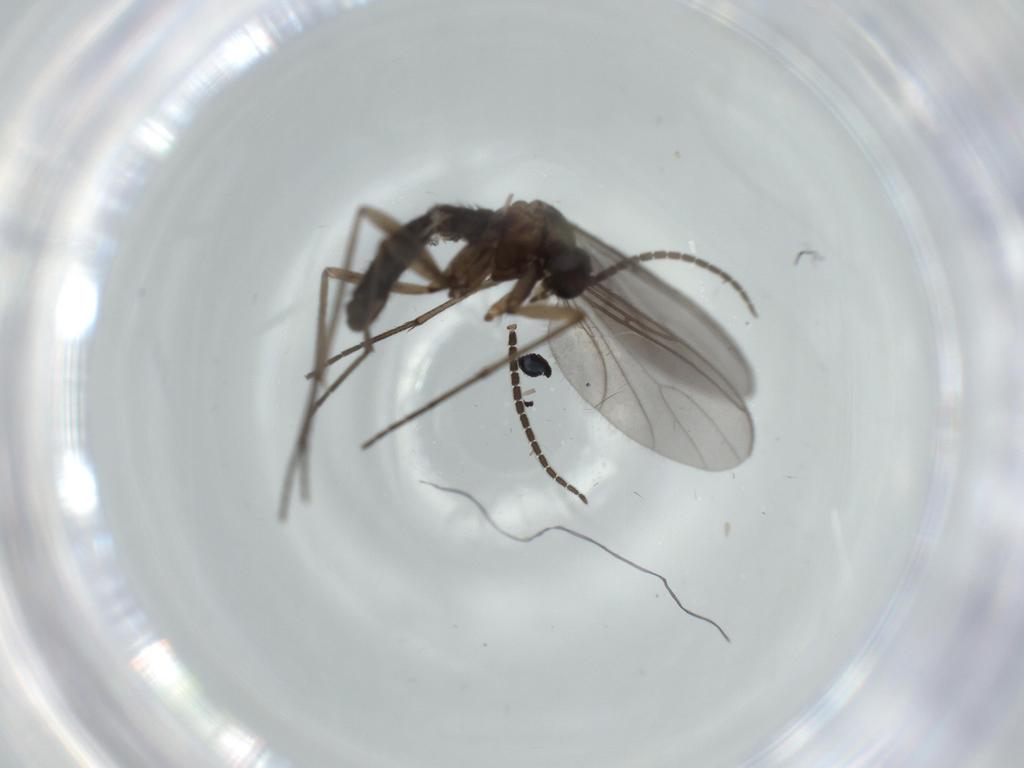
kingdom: Animalia
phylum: Arthropoda
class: Insecta
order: Diptera
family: Sciaridae
